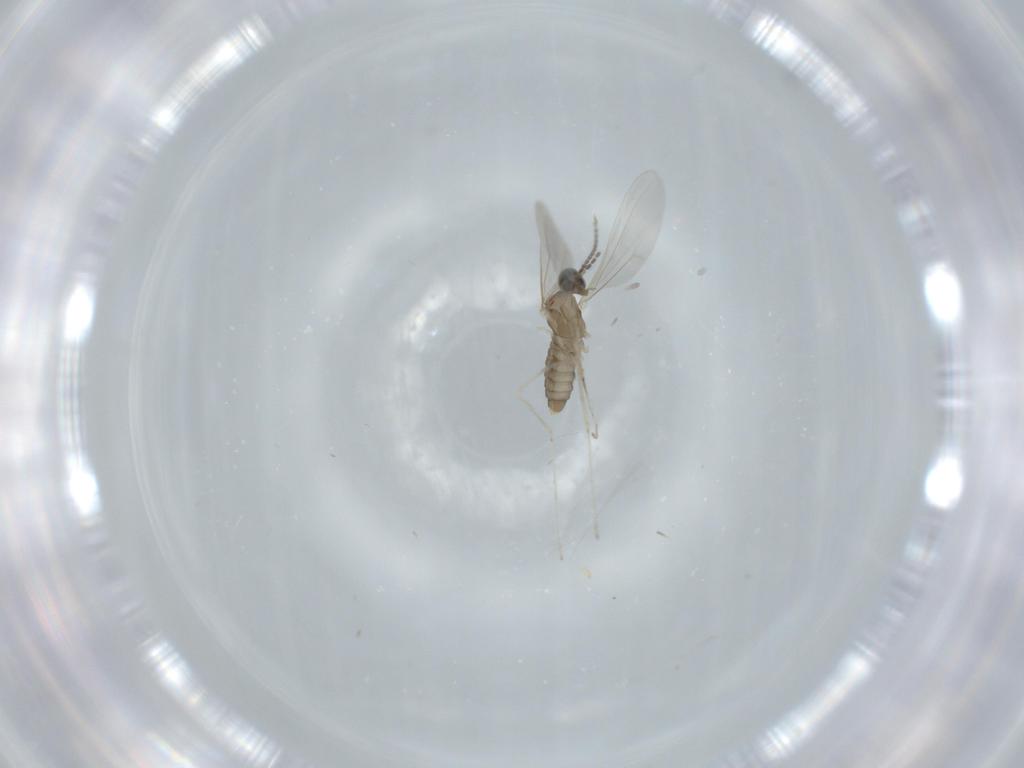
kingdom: Animalia
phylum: Arthropoda
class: Insecta
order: Diptera
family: Cecidomyiidae
